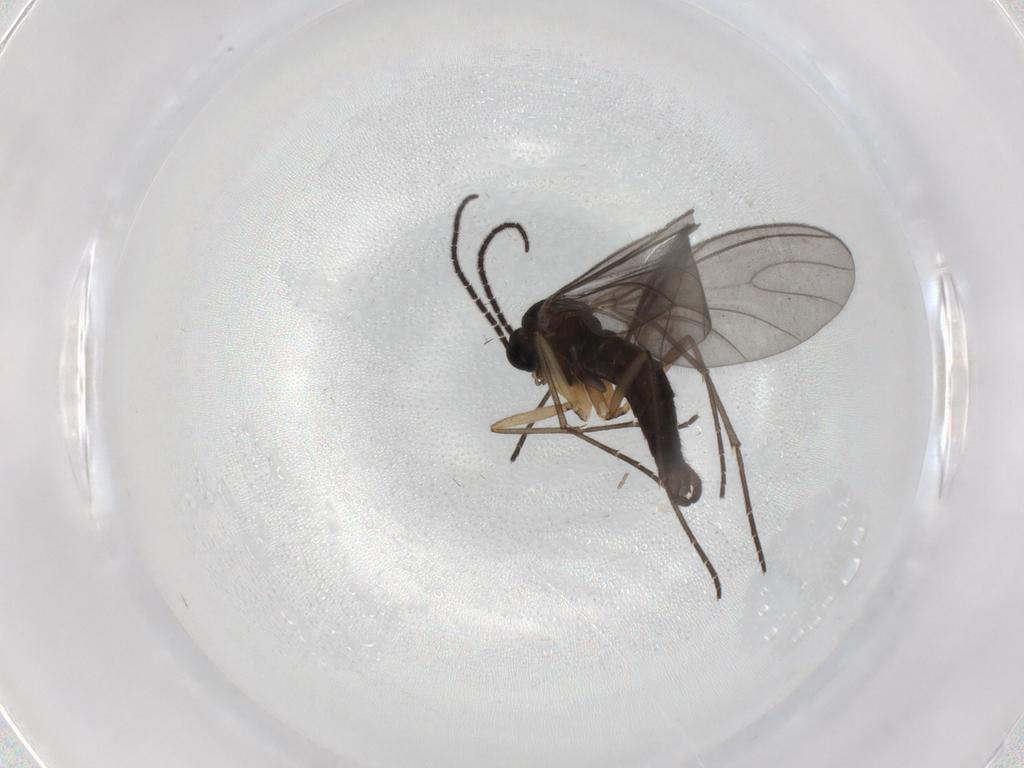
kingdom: Animalia
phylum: Arthropoda
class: Insecta
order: Diptera
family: Sciaridae
